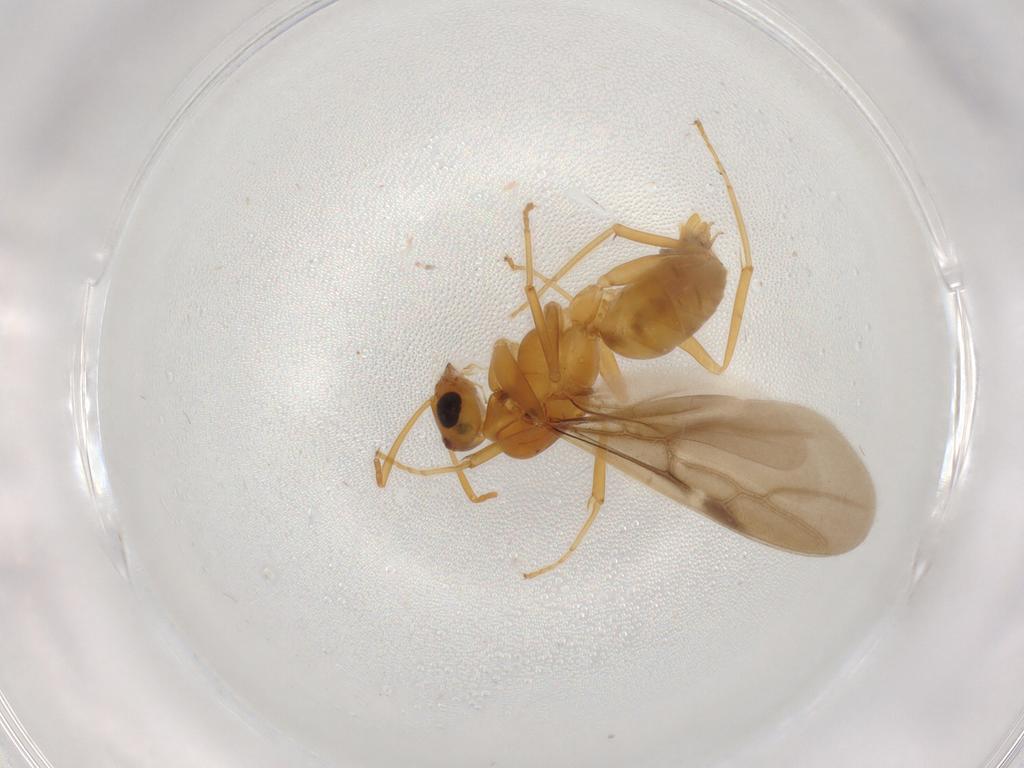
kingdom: Animalia
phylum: Arthropoda
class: Insecta
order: Hymenoptera
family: Formicidae
